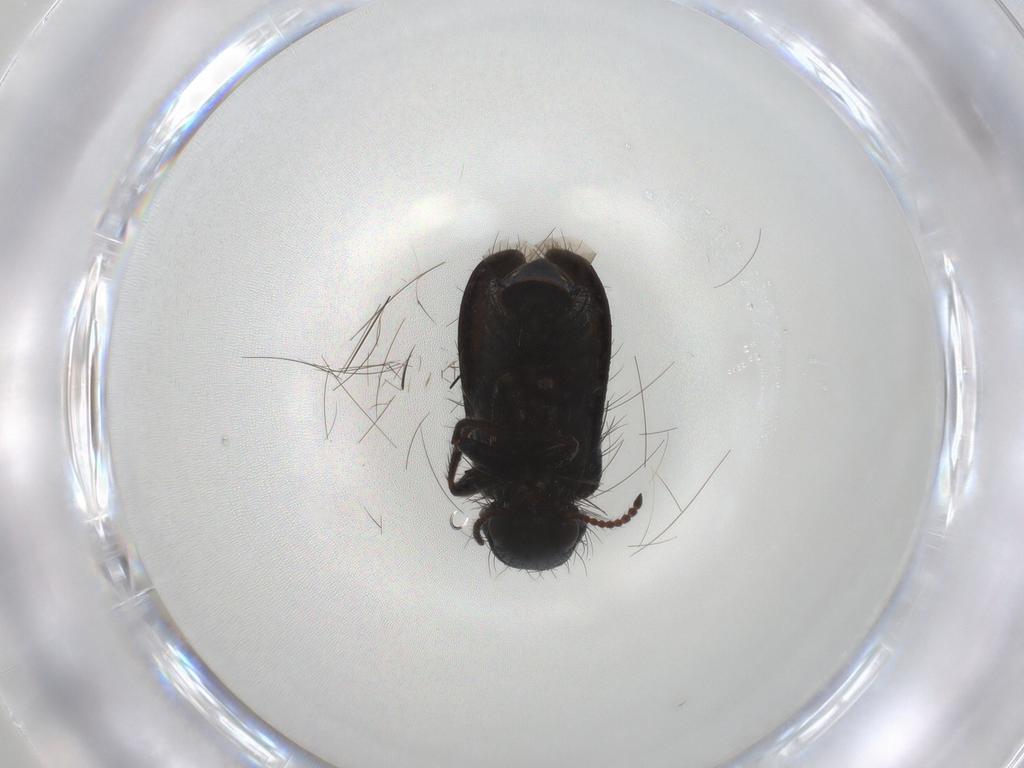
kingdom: Animalia
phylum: Arthropoda
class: Insecta
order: Coleoptera
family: Melyridae
